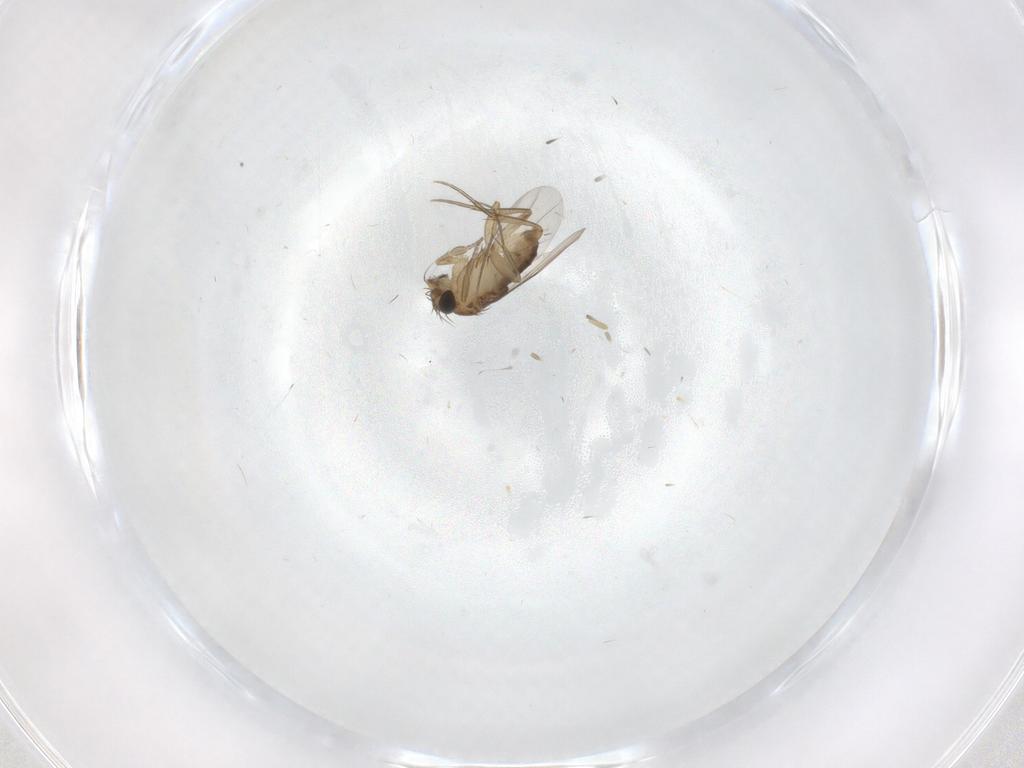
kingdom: Animalia
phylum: Arthropoda
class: Insecta
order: Diptera
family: Phoridae
